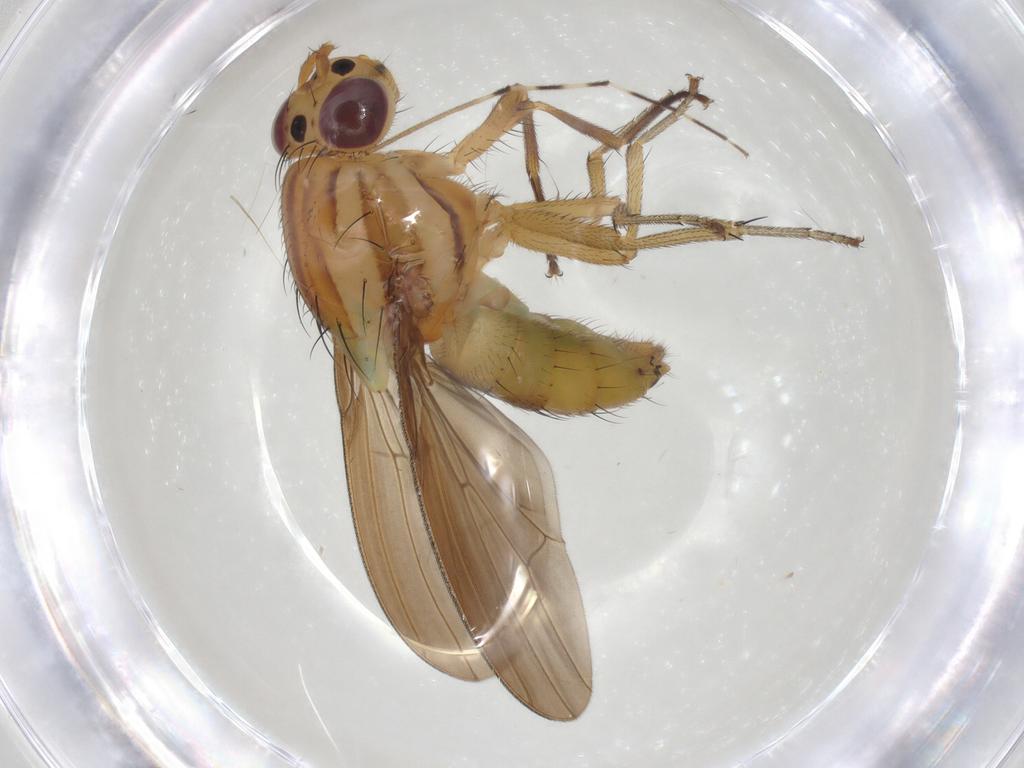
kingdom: Animalia
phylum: Arthropoda
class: Insecta
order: Diptera
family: Lauxaniidae
